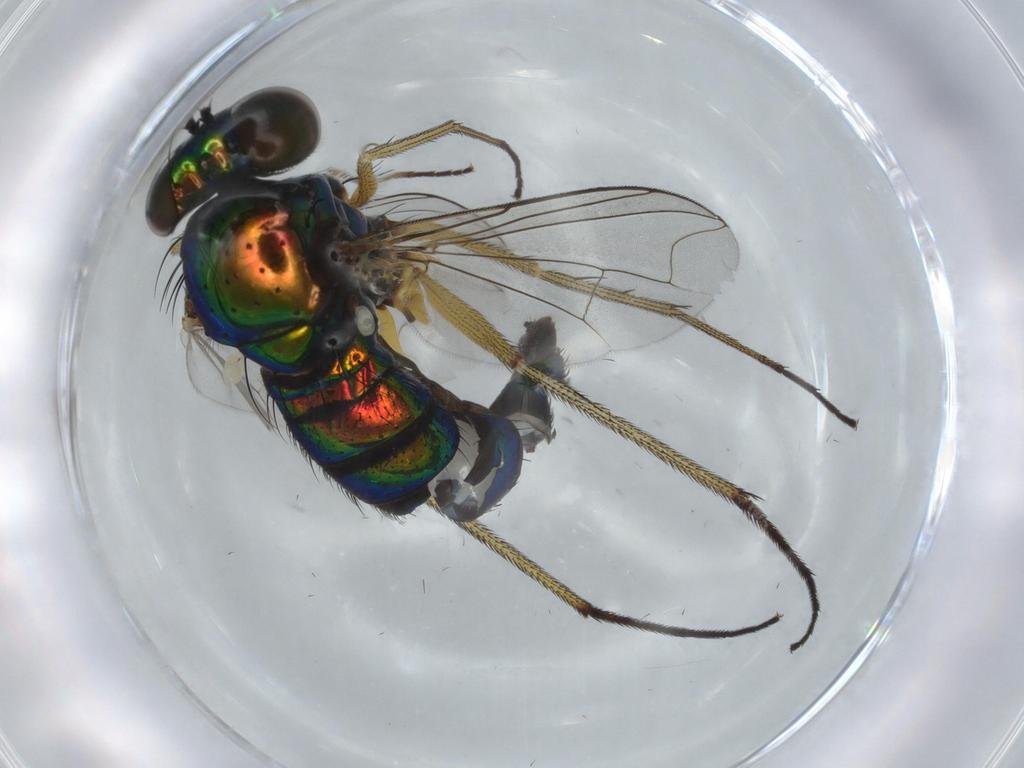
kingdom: Animalia
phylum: Arthropoda
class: Insecta
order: Diptera
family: Dolichopodidae
